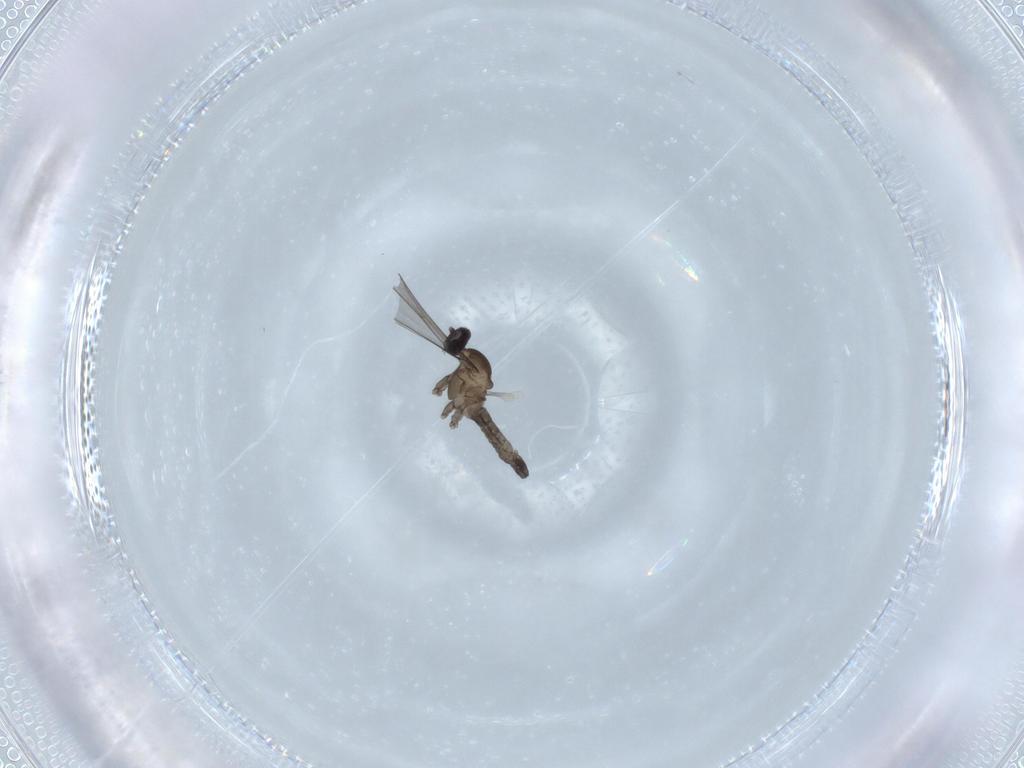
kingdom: Animalia
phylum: Arthropoda
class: Insecta
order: Diptera
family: Cecidomyiidae
